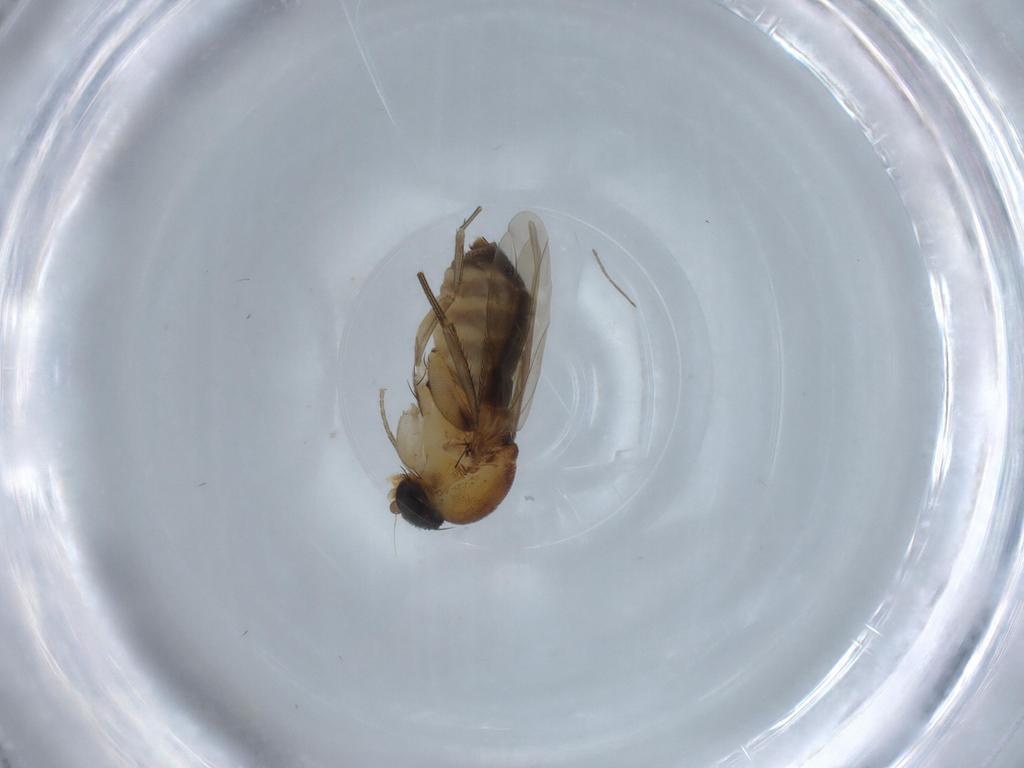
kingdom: Animalia
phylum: Arthropoda
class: Insecta
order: Diptera
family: Phoridae
